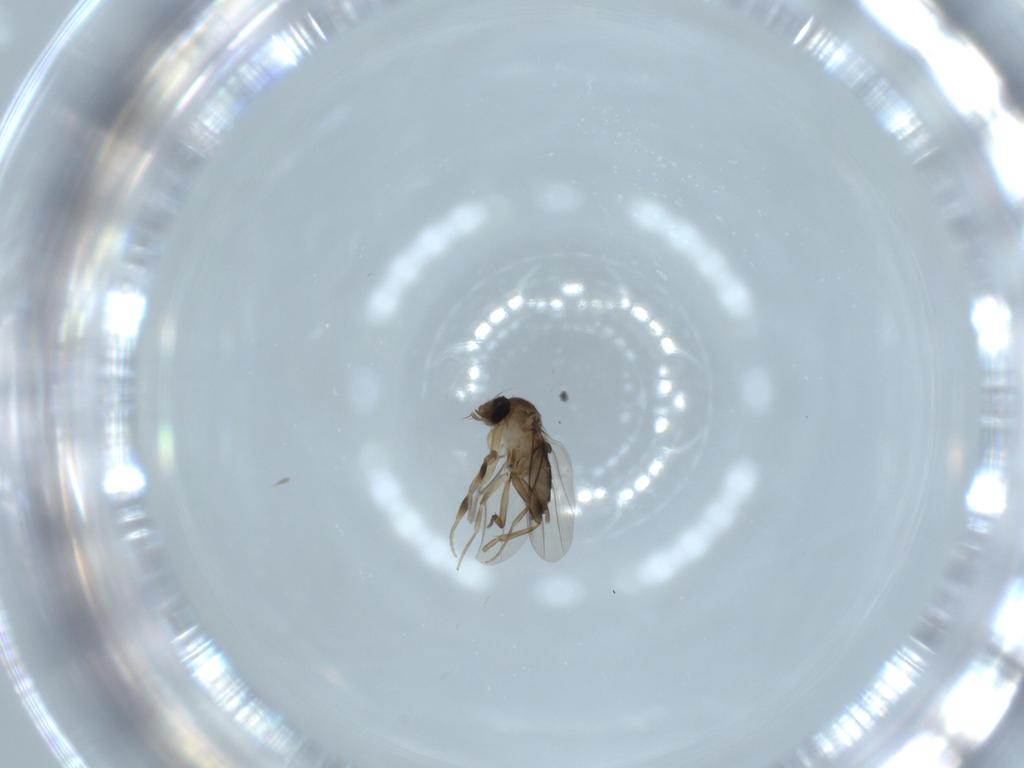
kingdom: Animalia
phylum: Arthropoda
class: Insecta
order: Diptera
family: Phoridae
